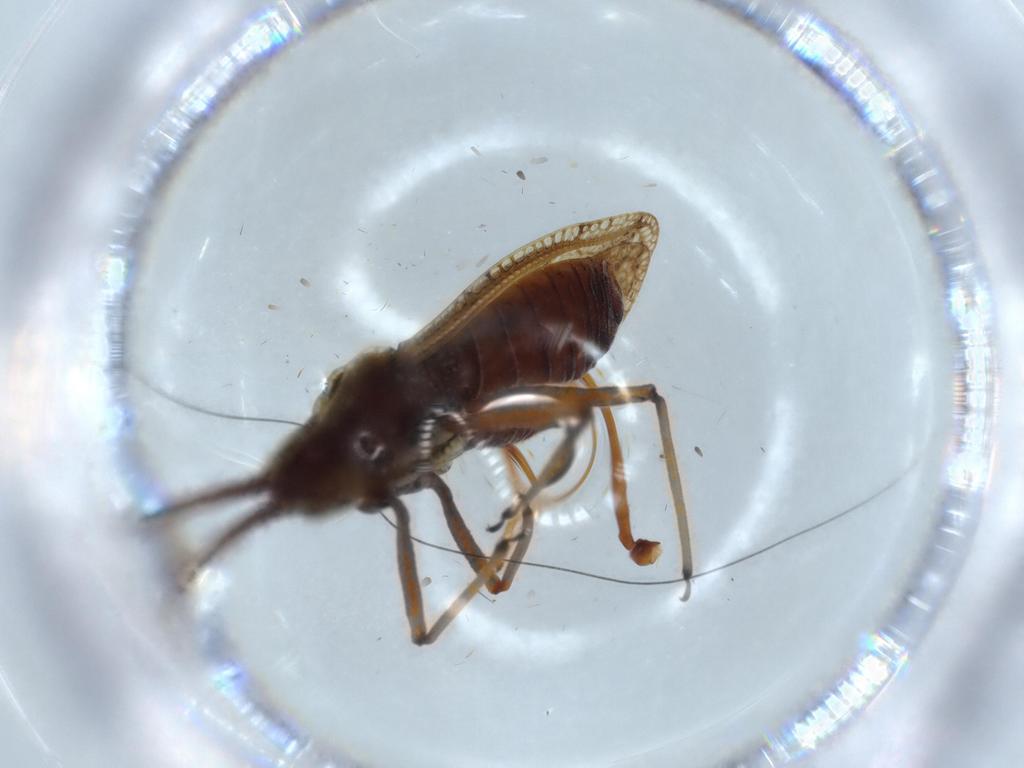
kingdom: Animalia
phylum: Arthropoda
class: Insecta
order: Hemiptera
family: Tingidae
